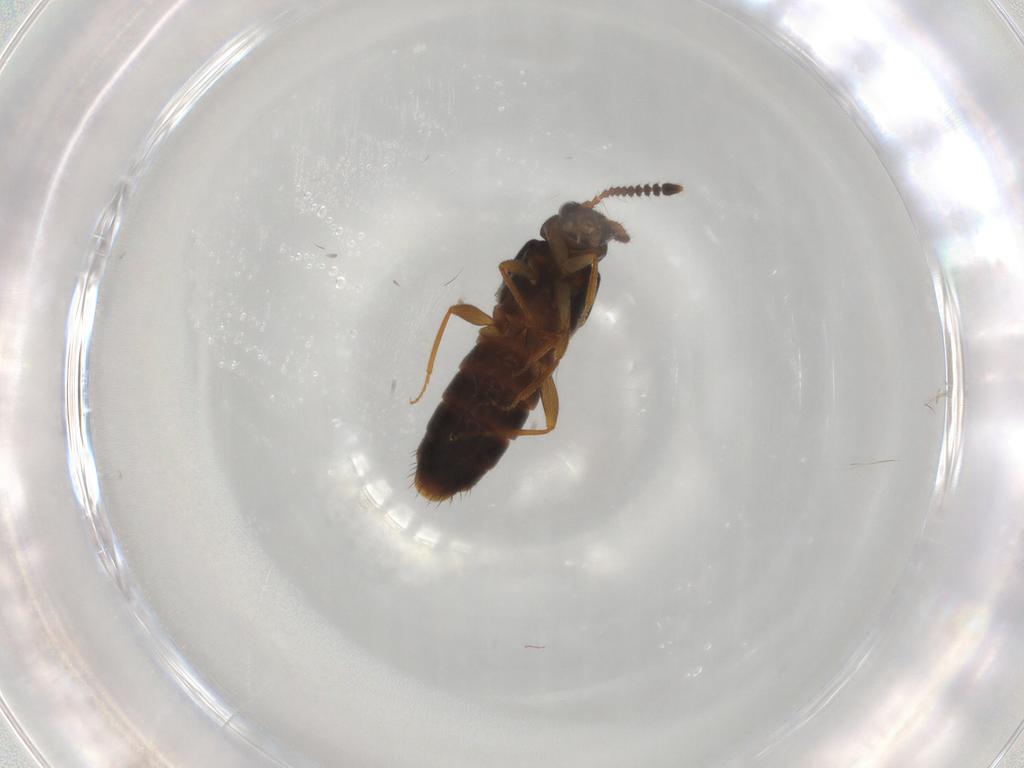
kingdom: Animalia
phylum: Arthropoda
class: Insecta
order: Coleoptera
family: Staphylinidae
